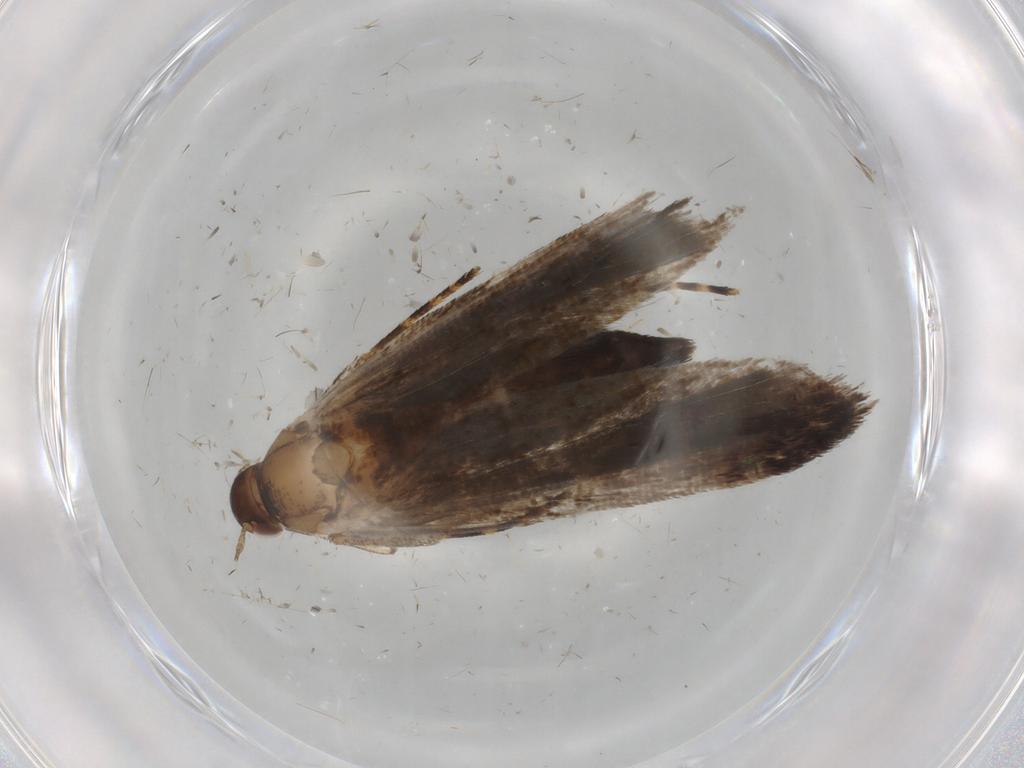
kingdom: Animalia
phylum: Arthropoda
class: Insecta
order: Lepidoptera
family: Gelechiidae
